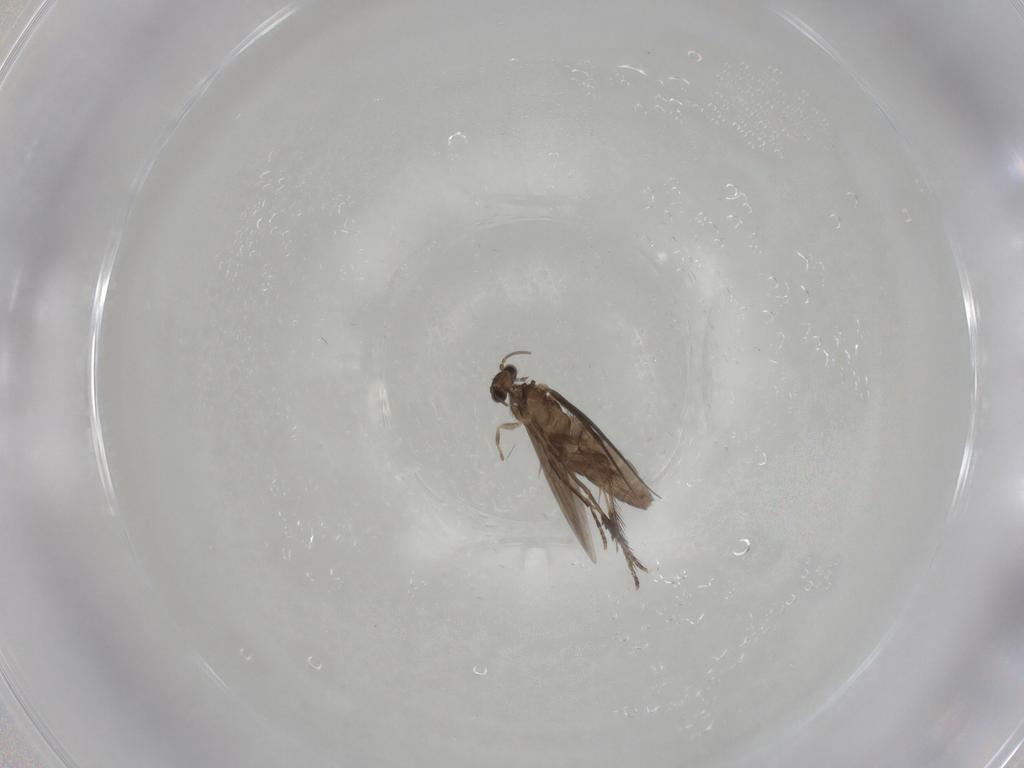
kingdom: Animalia
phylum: Arthropoda
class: Insecta
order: Trichoptera
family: Hydroptilidae
